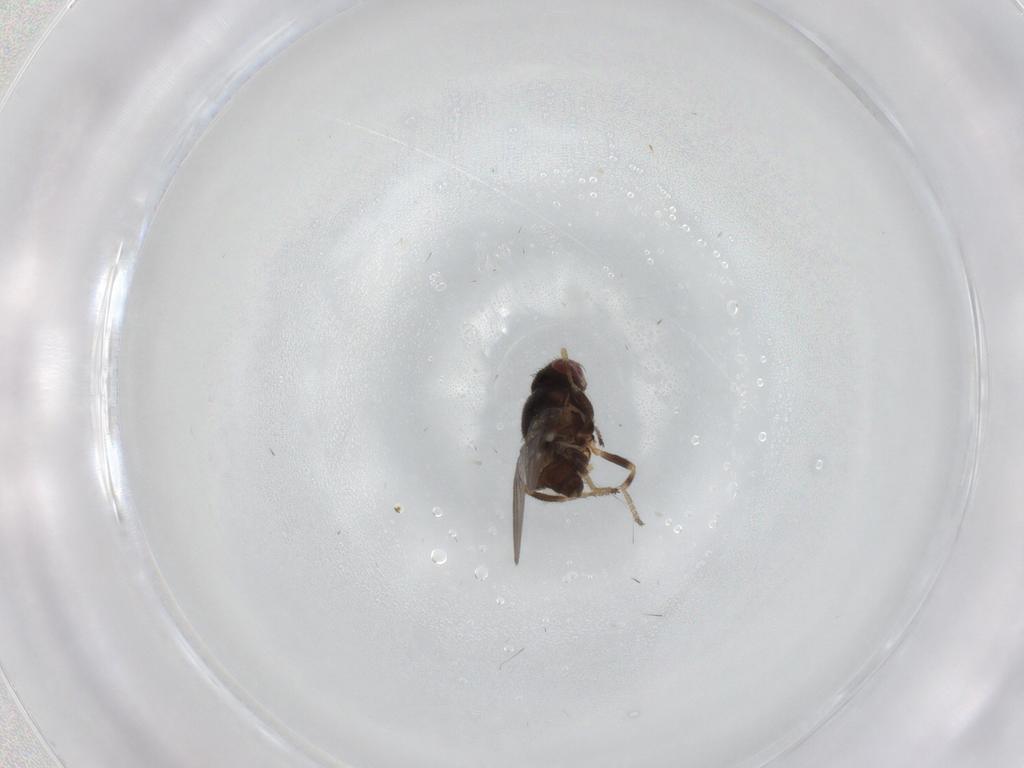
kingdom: Animalia
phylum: Arthropoda
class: Insecta
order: Diptera
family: Chloropidae
